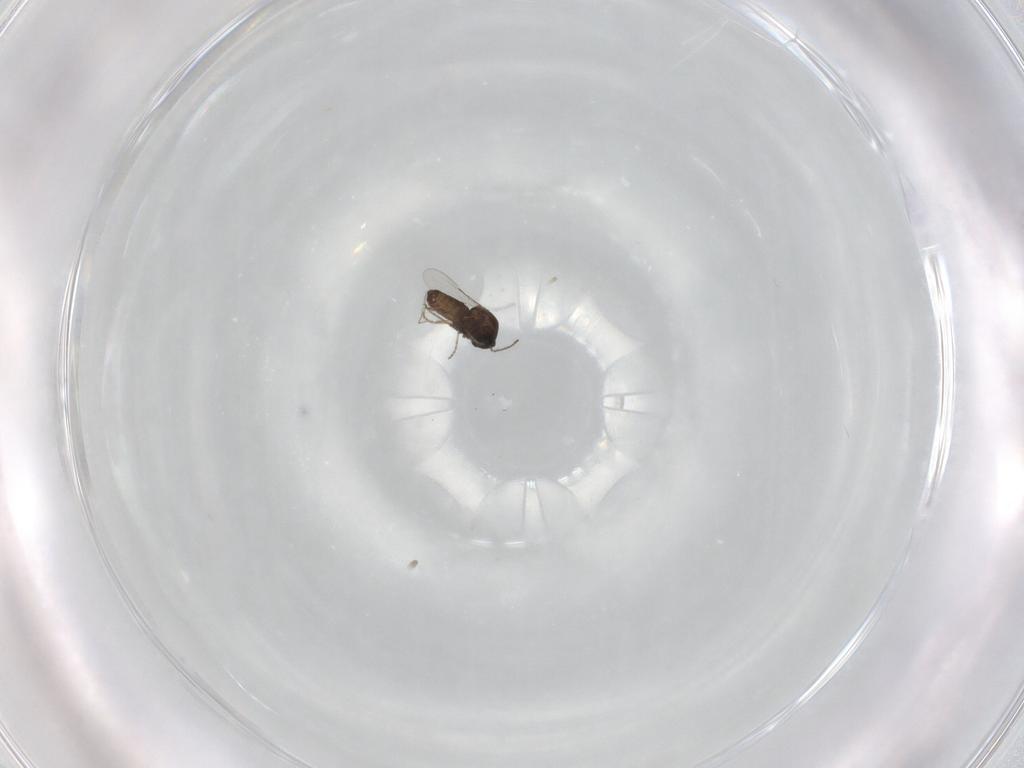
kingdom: Animalia
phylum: Arthropoda
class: Insecta
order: Diptera
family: Ceratopogonidae
